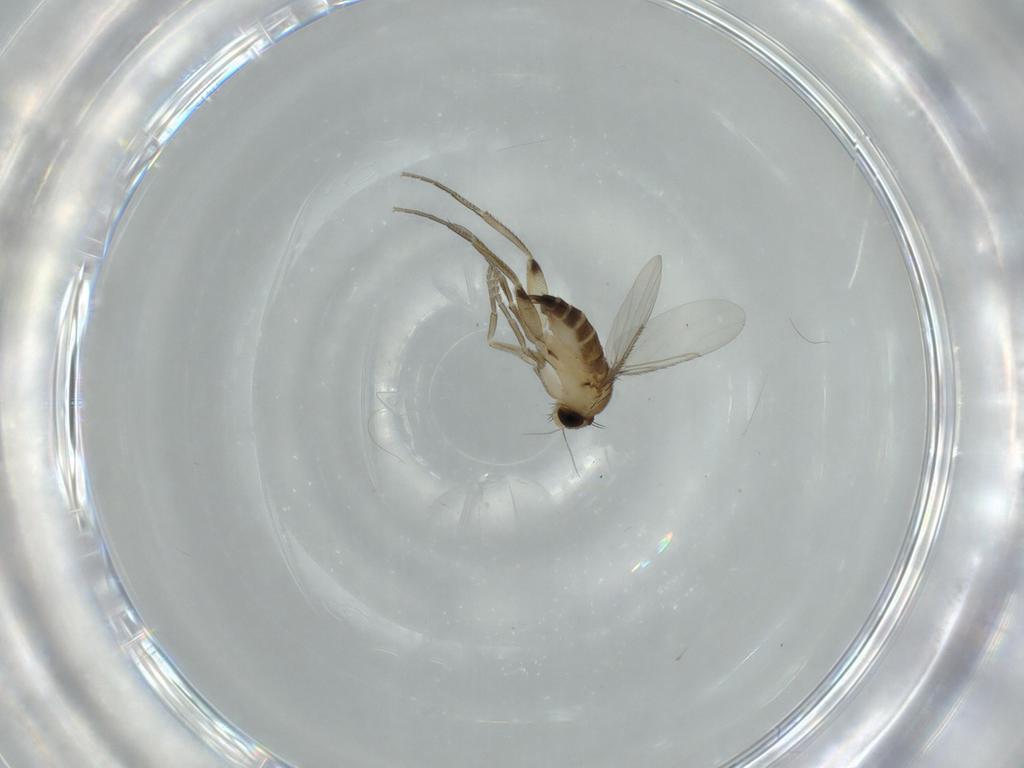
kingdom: Animalia
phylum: Arthropoda
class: Insecta
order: Diptera
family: Phoridae
